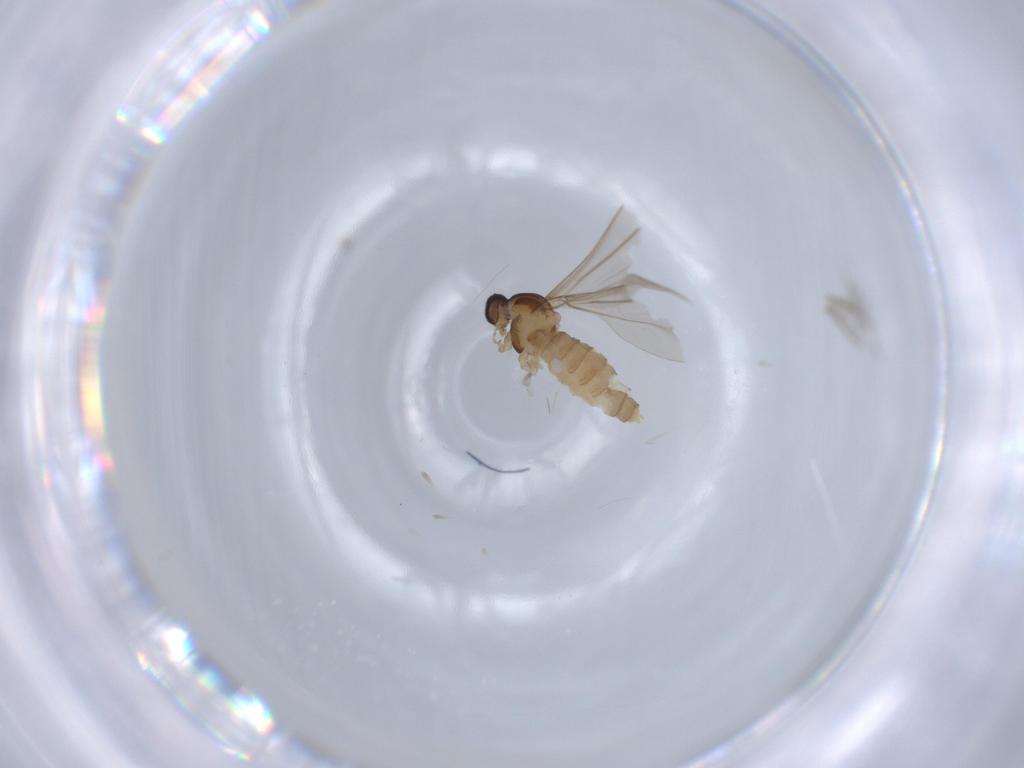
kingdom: Animalia
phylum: Arthropoda
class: Insecta
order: Diptera
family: Cecidomyiidae
